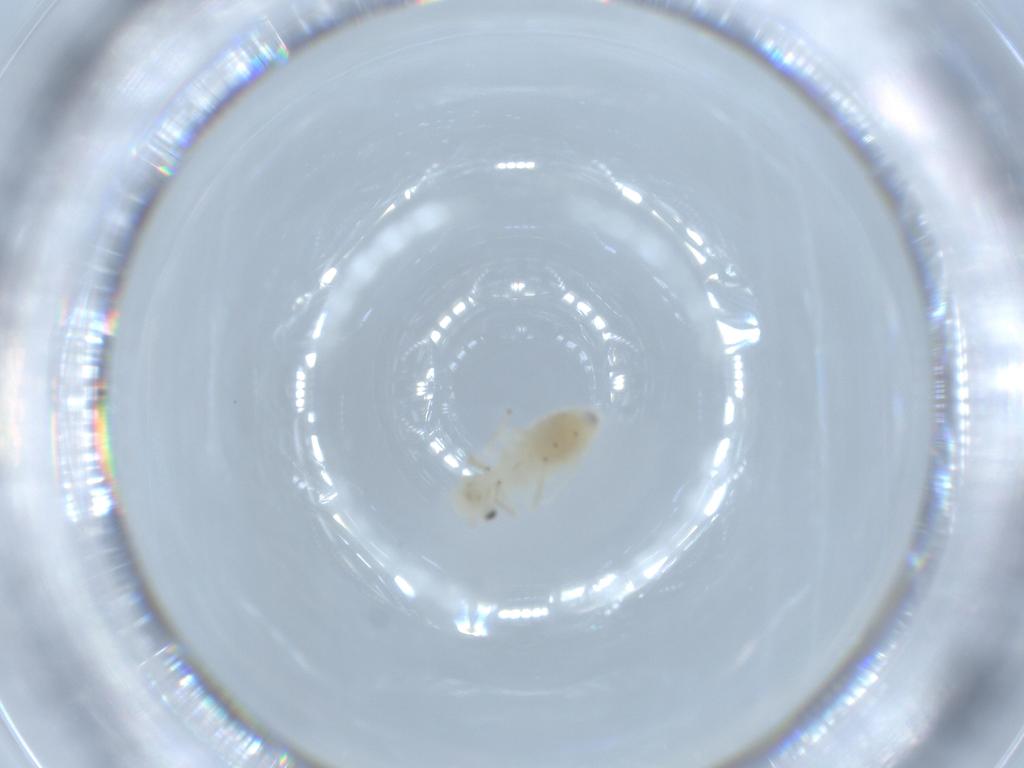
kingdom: Animalia
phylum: Arthropoda
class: Insecta
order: Psocodea
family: Caeciliusidae
